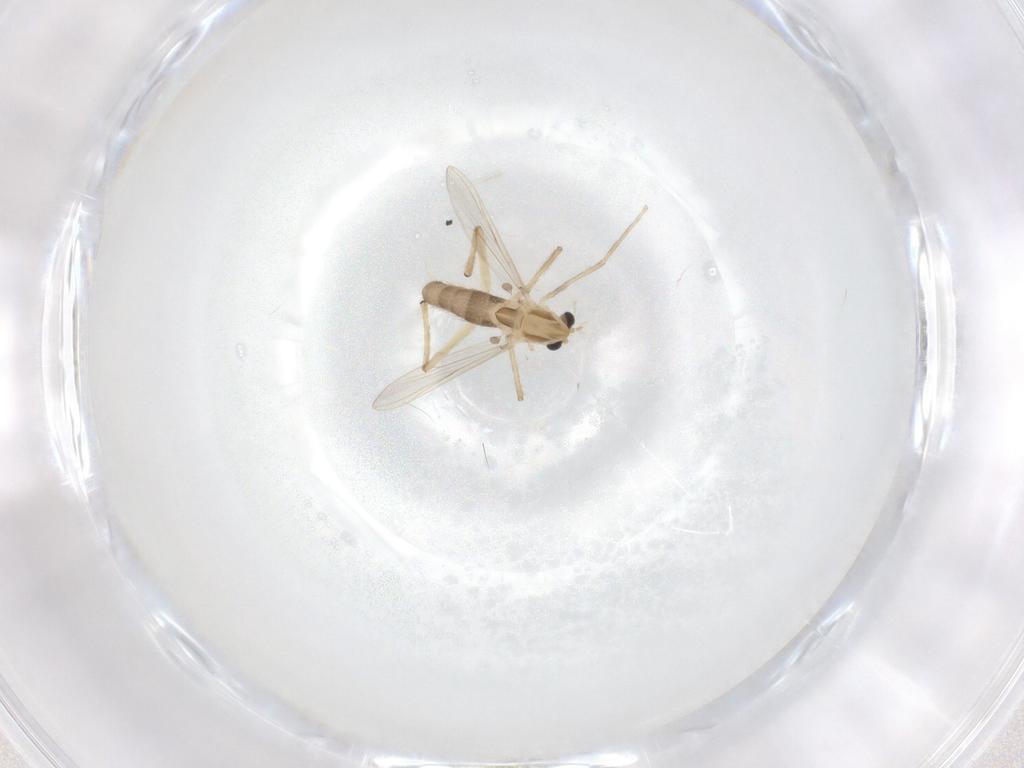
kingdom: Animalia
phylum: Arthropoda
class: Insecta
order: Diptera
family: Chironomidae
